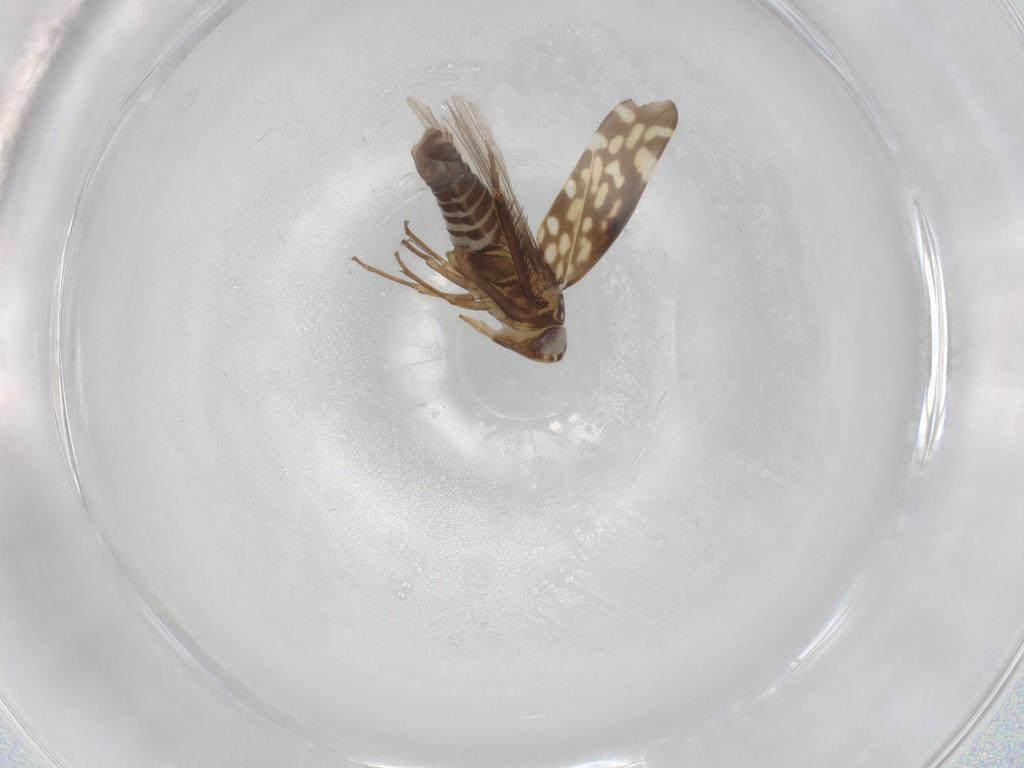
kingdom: Animalia
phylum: Arthropoda
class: Insecta
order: Hemiptera
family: Cicadellidae
